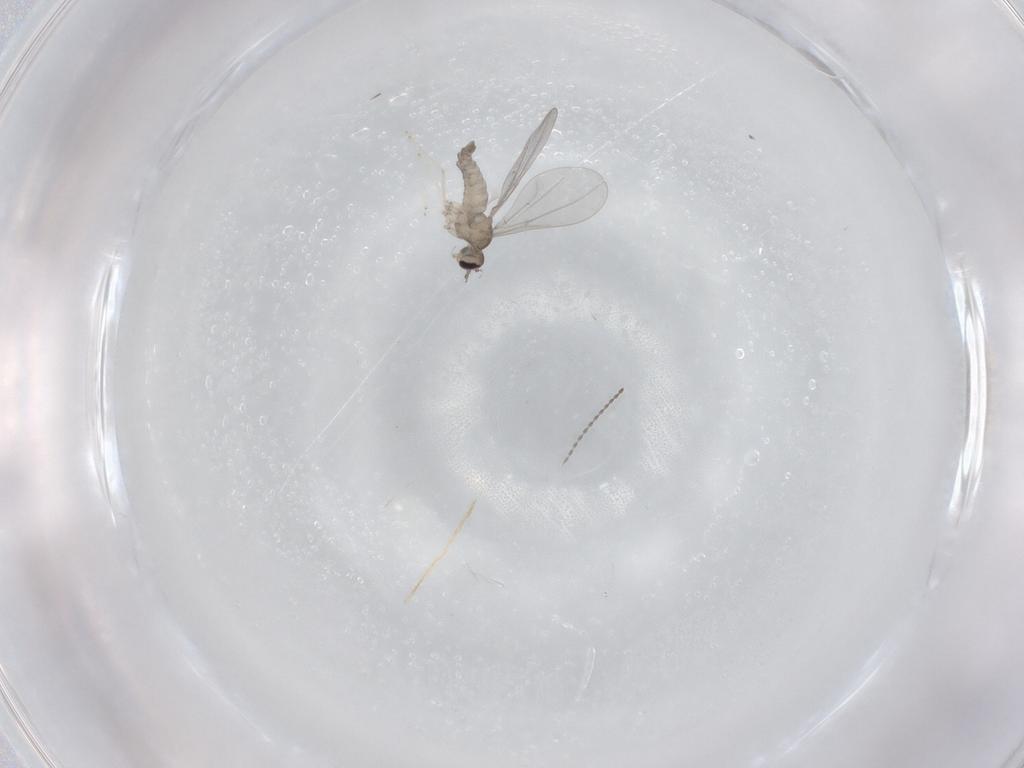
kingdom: Animalia
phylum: Arthropoda
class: Insecta
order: Diptera
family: Cecidomyiidae
